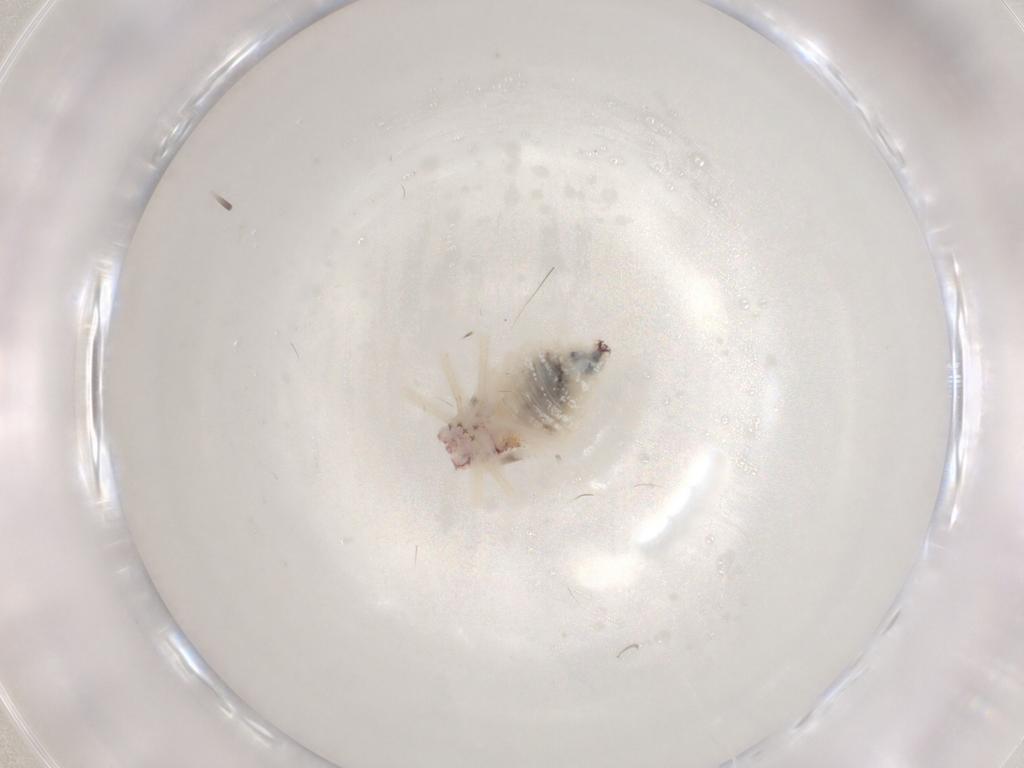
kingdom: Animalia
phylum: Arthropoda
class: Insecta
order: Psocodea
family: Amphipsocidae
